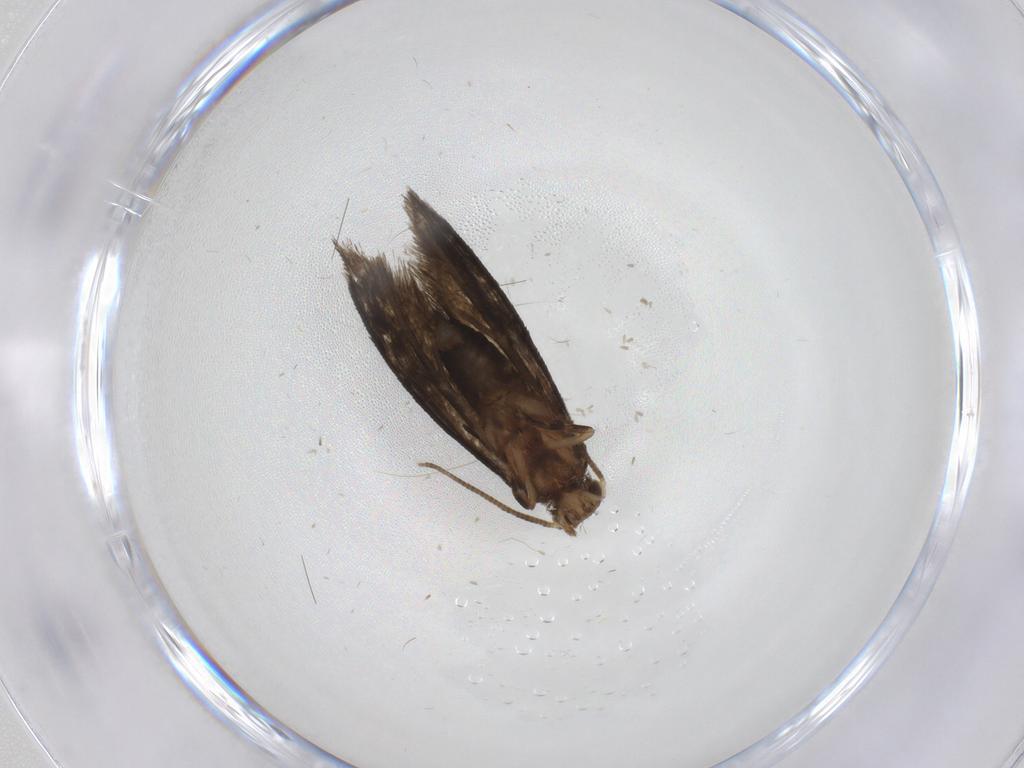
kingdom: Animalia
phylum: Arthropoda
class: Insecta
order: Lepidoptera
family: Tineidae
